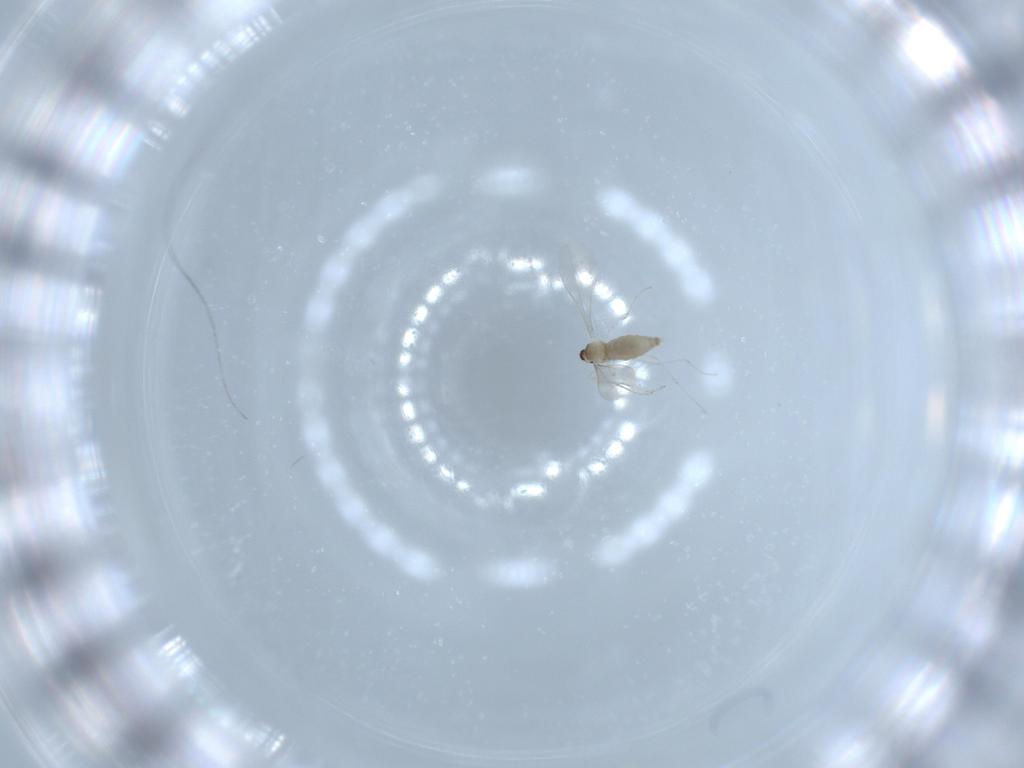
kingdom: Animalia
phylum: Arthropoda
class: Insecta
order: Diptera
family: Cecidomyiidae
